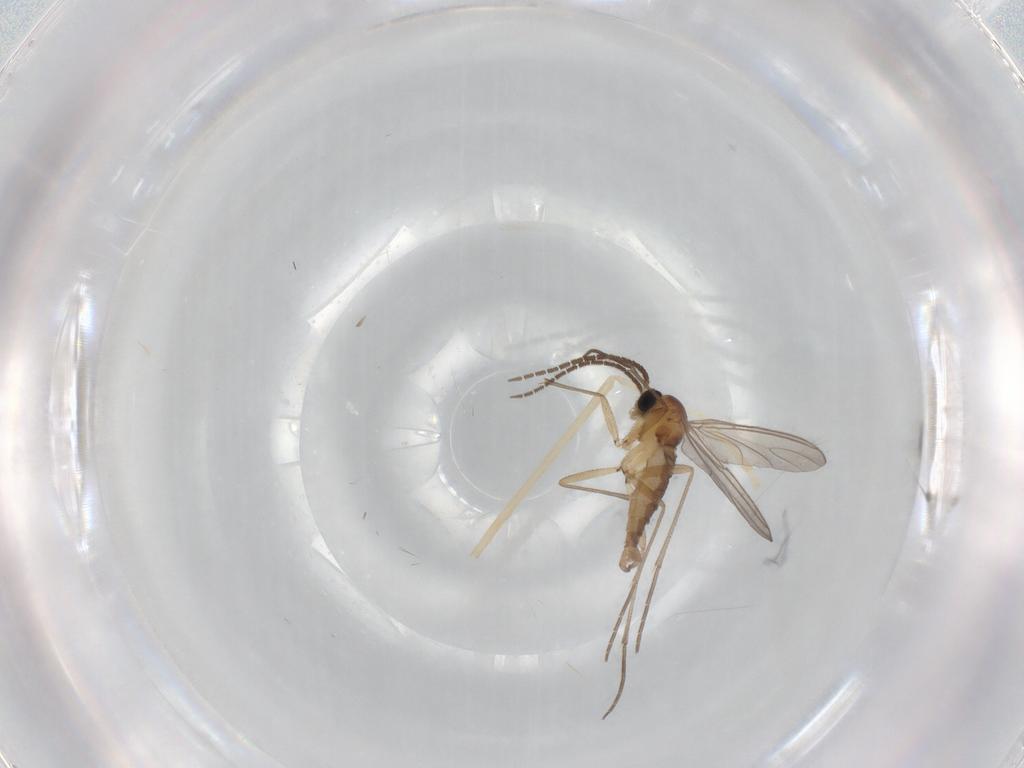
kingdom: Animalia
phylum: Arthropoda
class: Insecta
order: Diptera
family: Sciaridae
